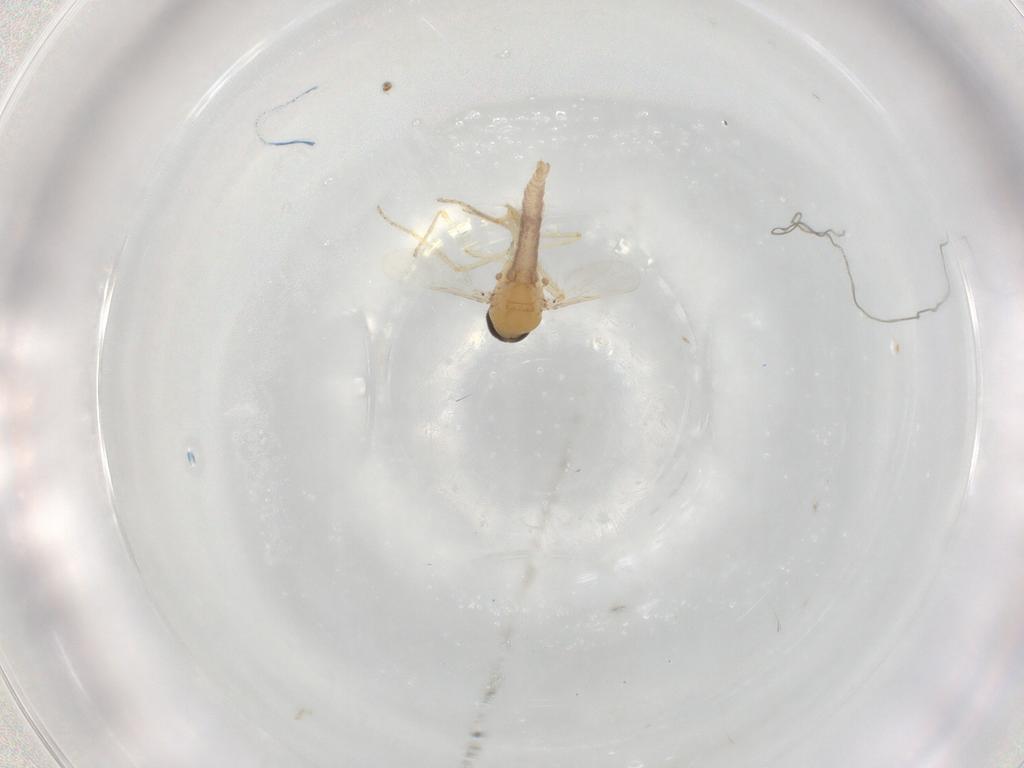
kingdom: Animalia
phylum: Arthropoda
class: Insecta
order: Diptera
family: Ceratopogonidae
